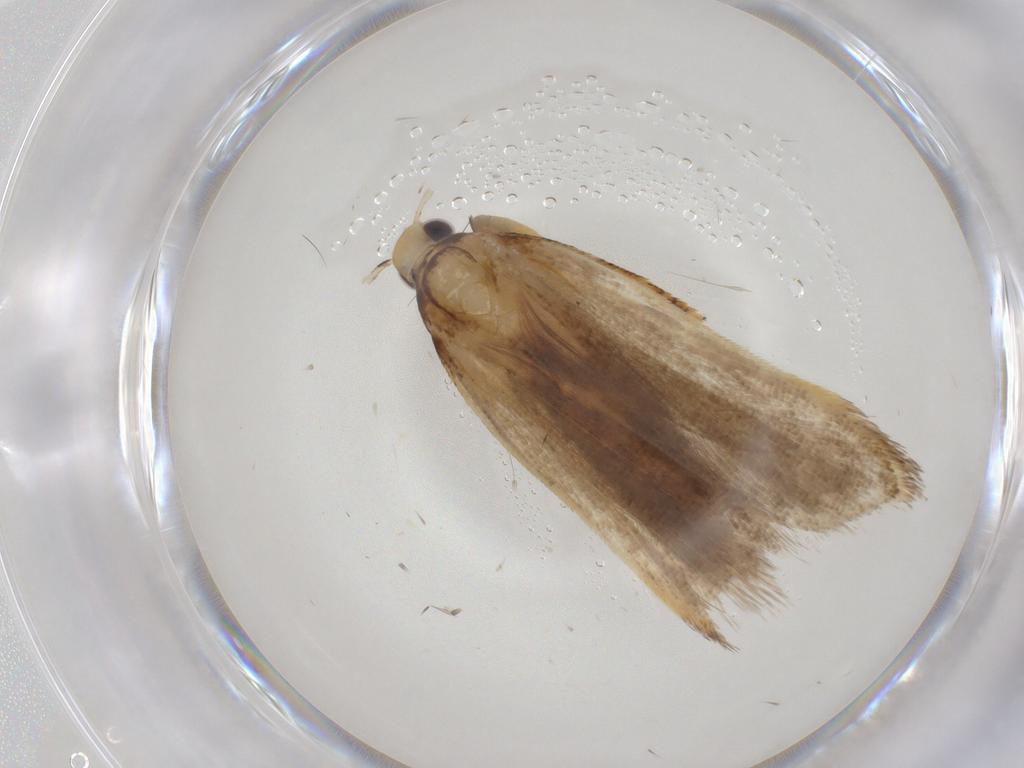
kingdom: Animalia
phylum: Arthropoda
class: Insecta
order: Lepidoptera
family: Gelechiidae
